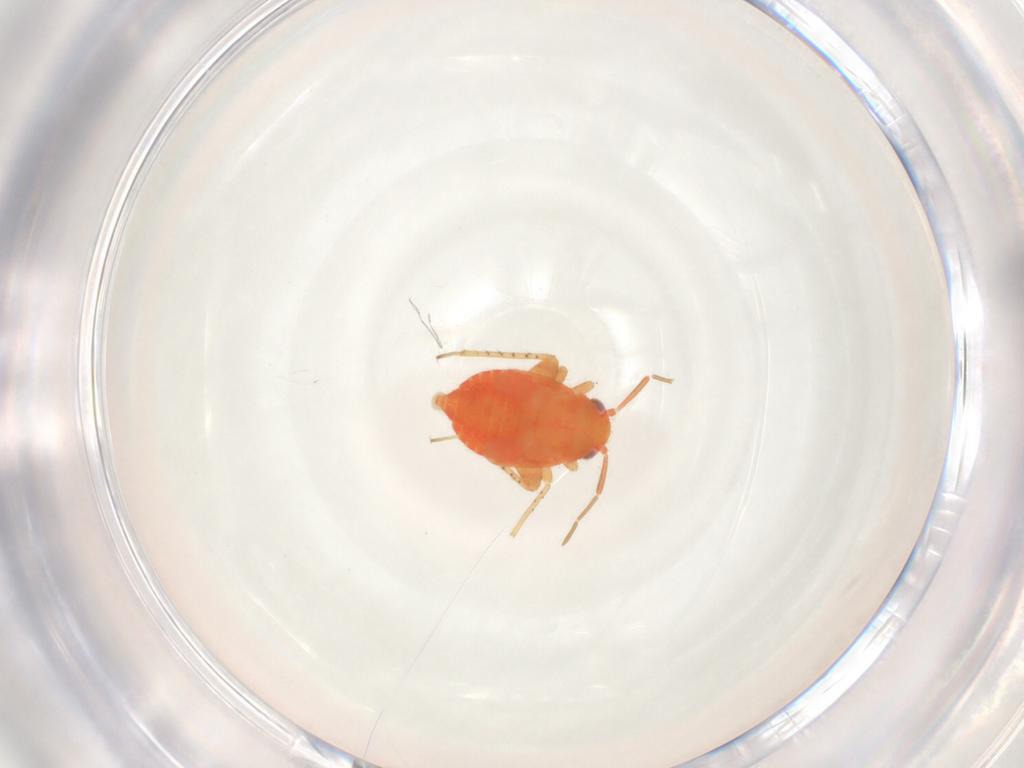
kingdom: Animalia
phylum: Arthropoda
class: Insecta
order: Hemiptera
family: Miridae
